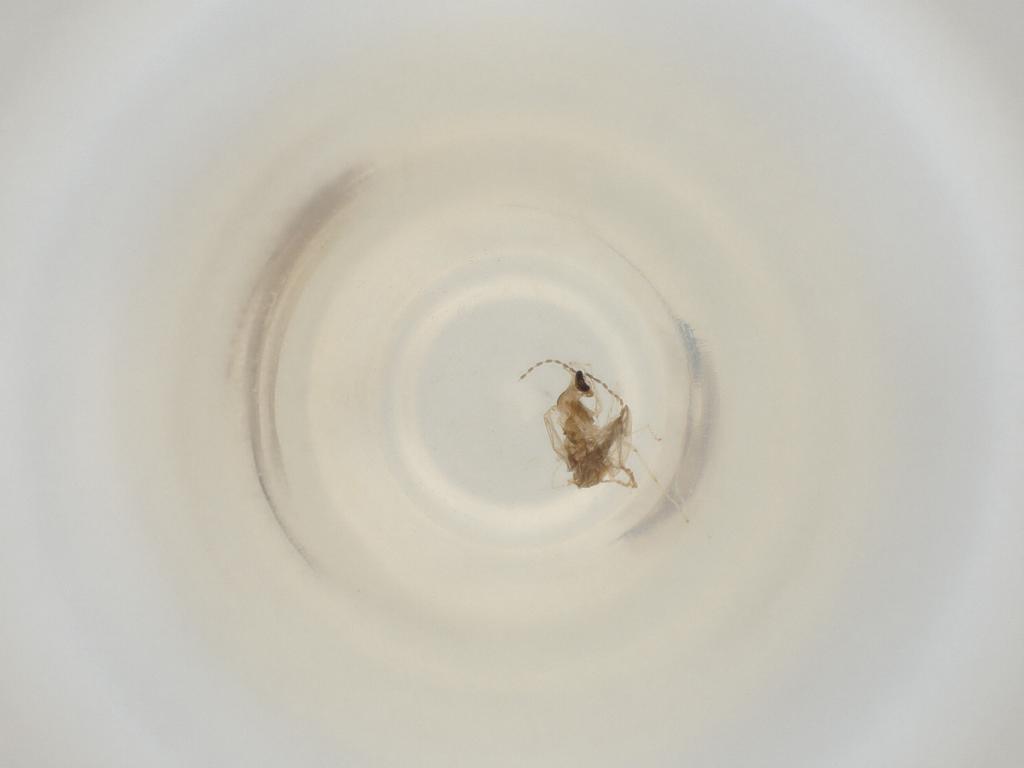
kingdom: Animalia
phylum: Arthropoda
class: Insecta
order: Diptera
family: Cecidomyiidae
